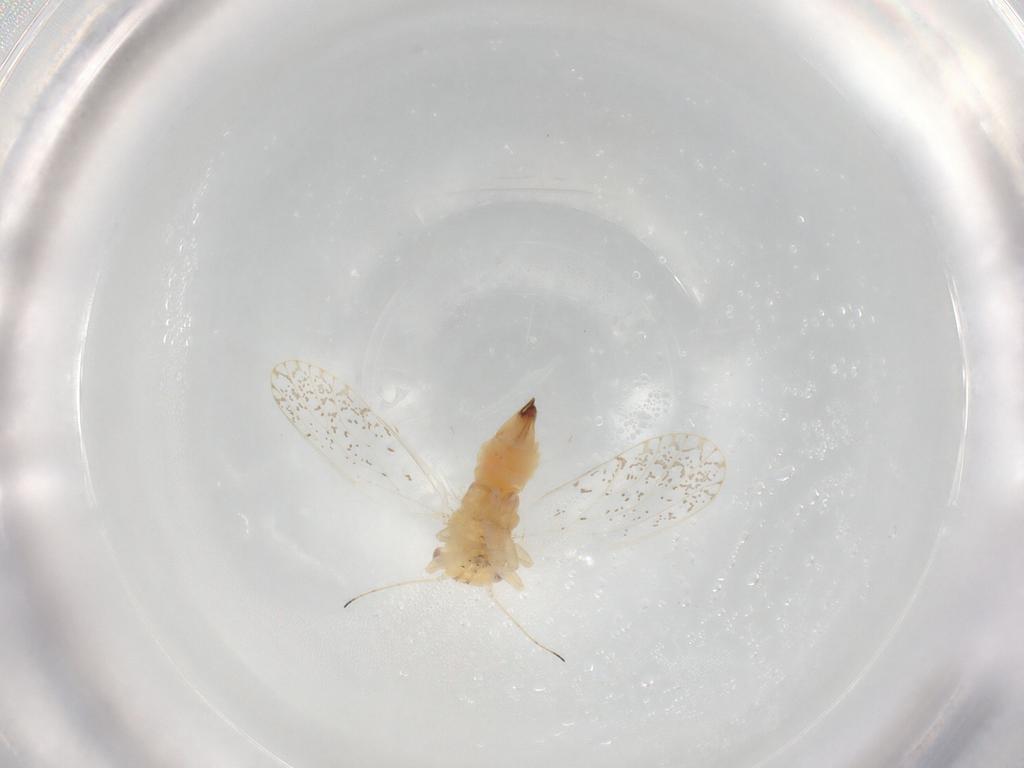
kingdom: Animalia
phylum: Arthropoda
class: Insecta
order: Hemiptera
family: Psyllidae
